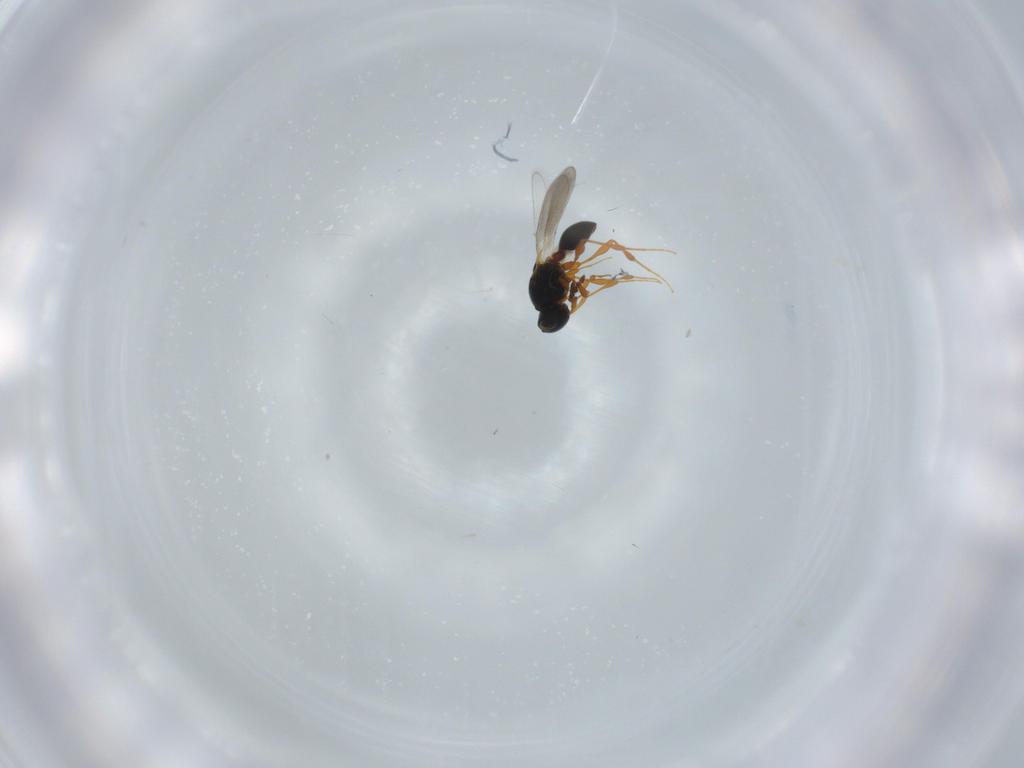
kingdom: Animalia
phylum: Arthropoda
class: Insecta
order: Hymenoptera
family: Platygastridae
